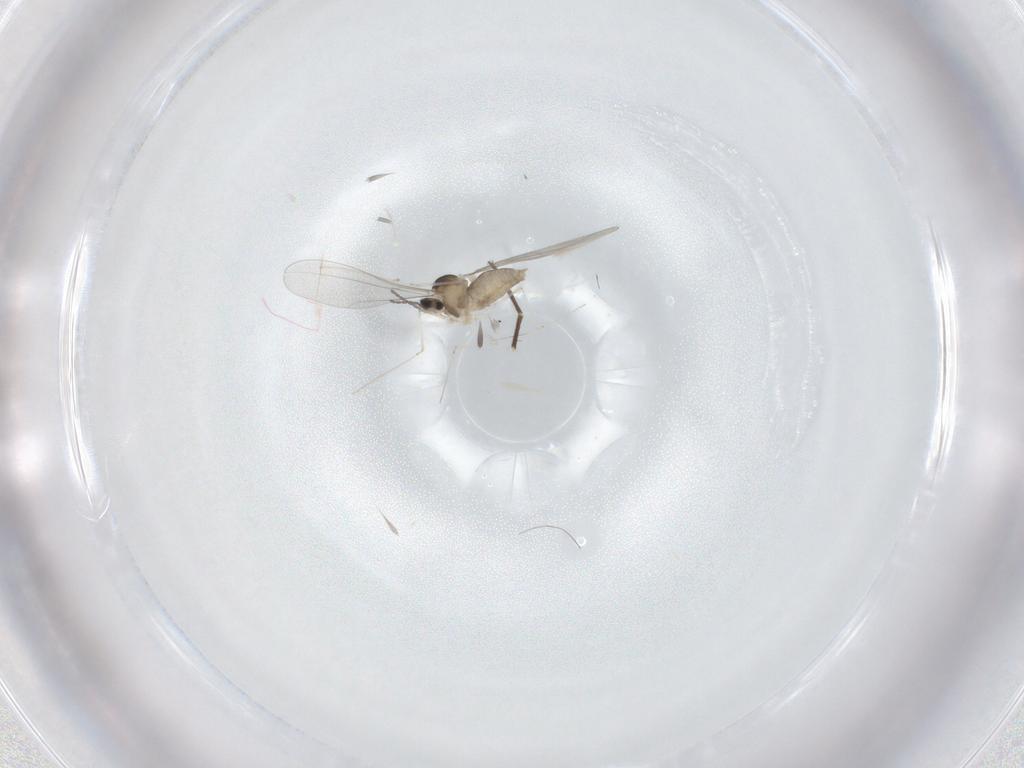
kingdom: Animalia
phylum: Arthropoda
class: Insecta
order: Diptera
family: Cecidomyiidae
